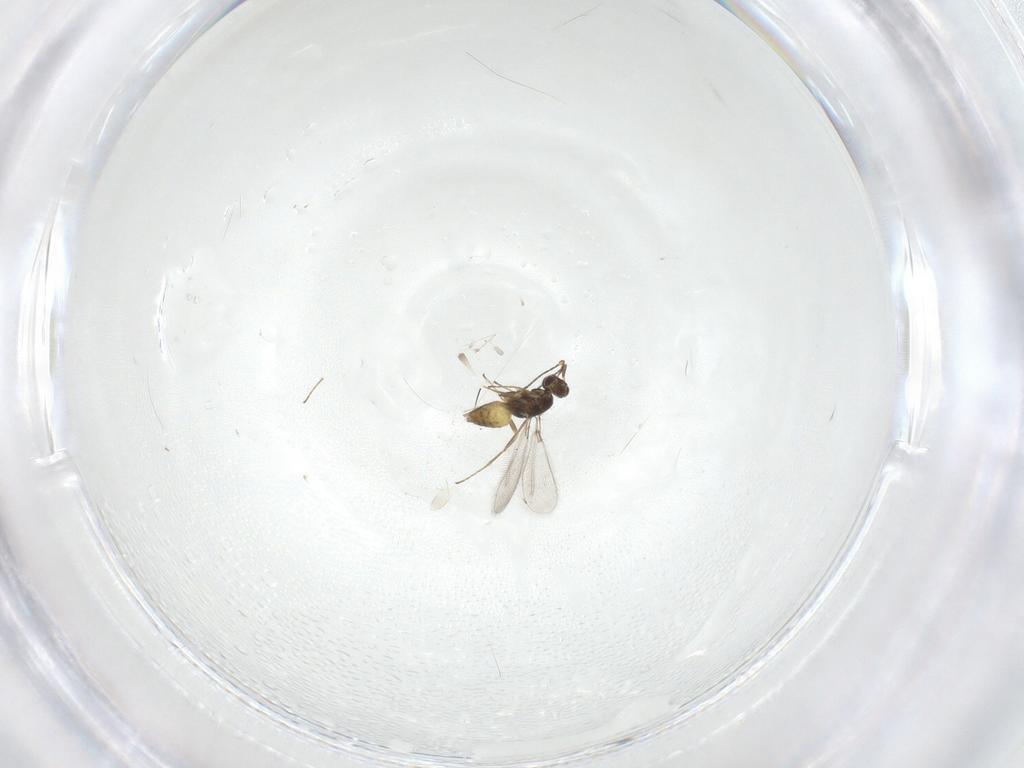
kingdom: Animalia
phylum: Arthropoda
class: Insecta
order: Hymenoptera
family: Mymaridae
